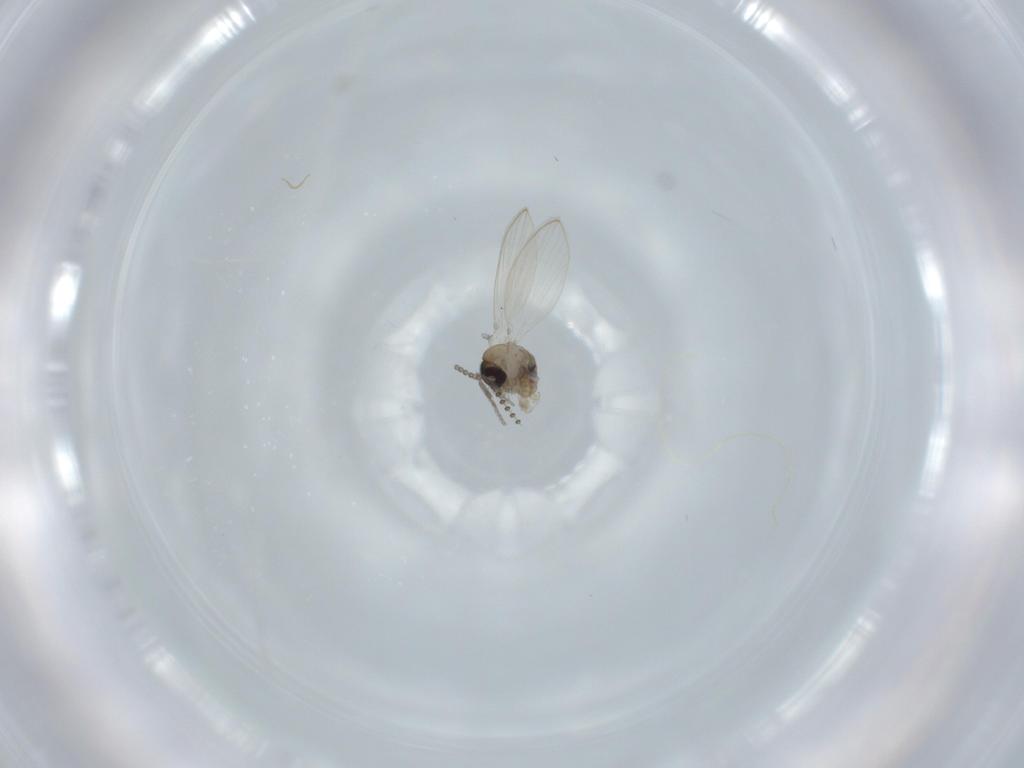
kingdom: Animalia
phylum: Arthropoda
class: Insecta
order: Diptera
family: Psychodidae
